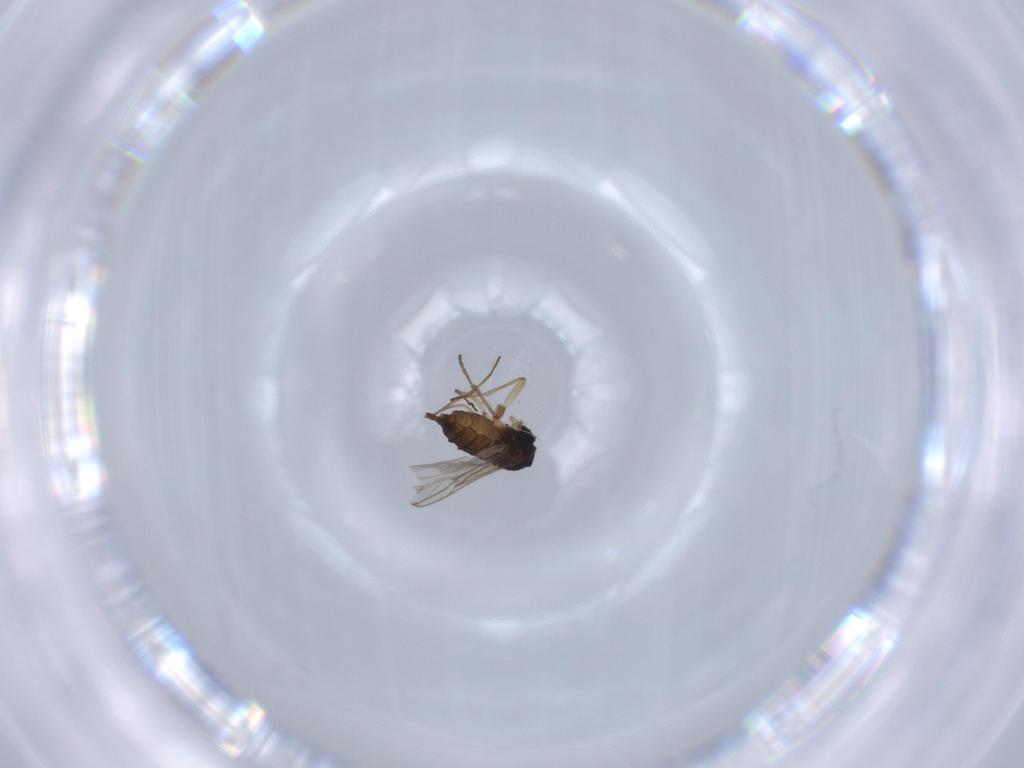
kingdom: Animalia
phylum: Arthropoda
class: Insecta
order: Diptera
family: Sciaridae
